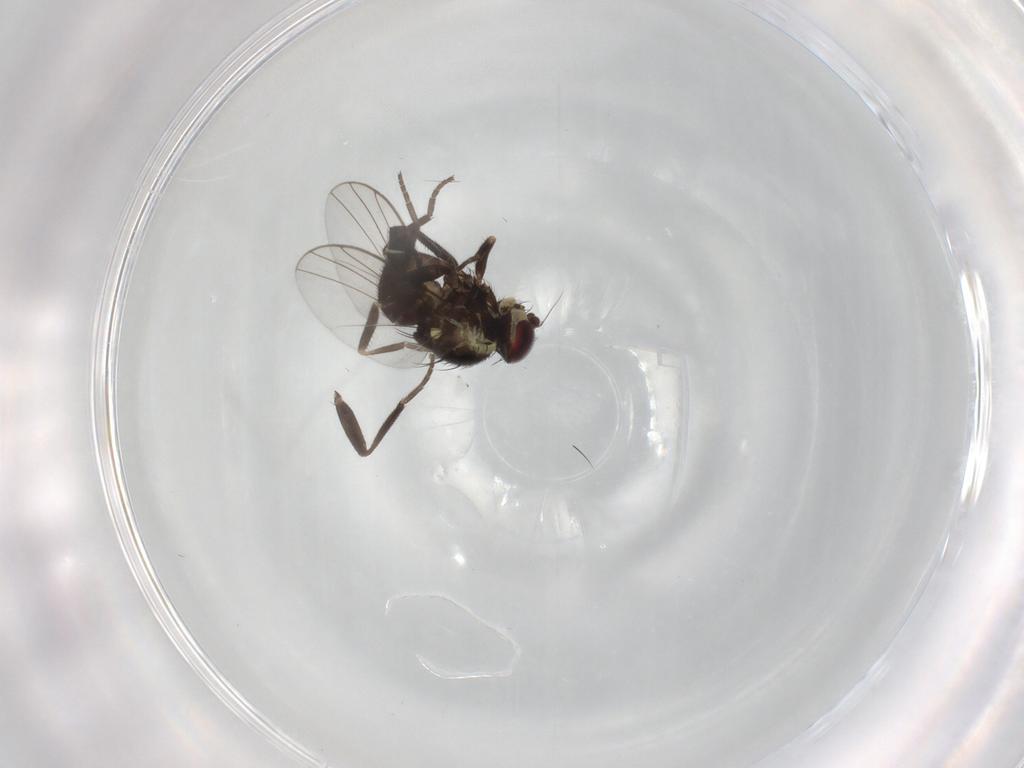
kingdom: Animalia
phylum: Arthropoda
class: Insecta
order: Diptera
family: Agromyzidae
